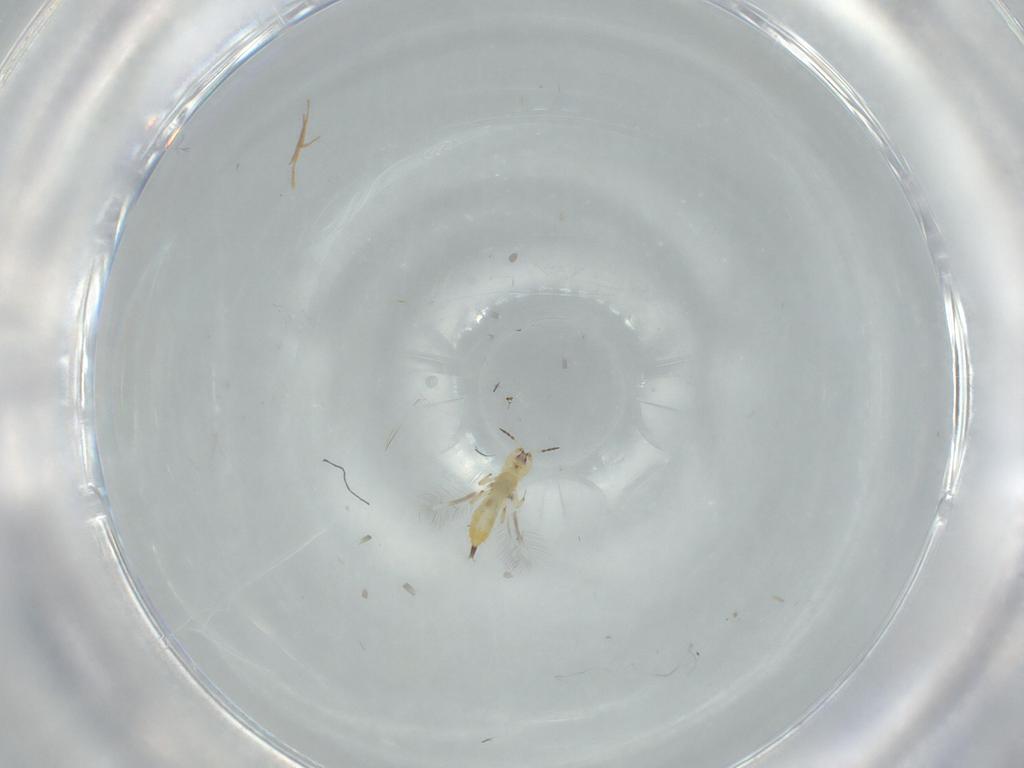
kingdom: Animalia
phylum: Arthropoda
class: Insecta
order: Thysanoptera
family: Phlaeothripidae
